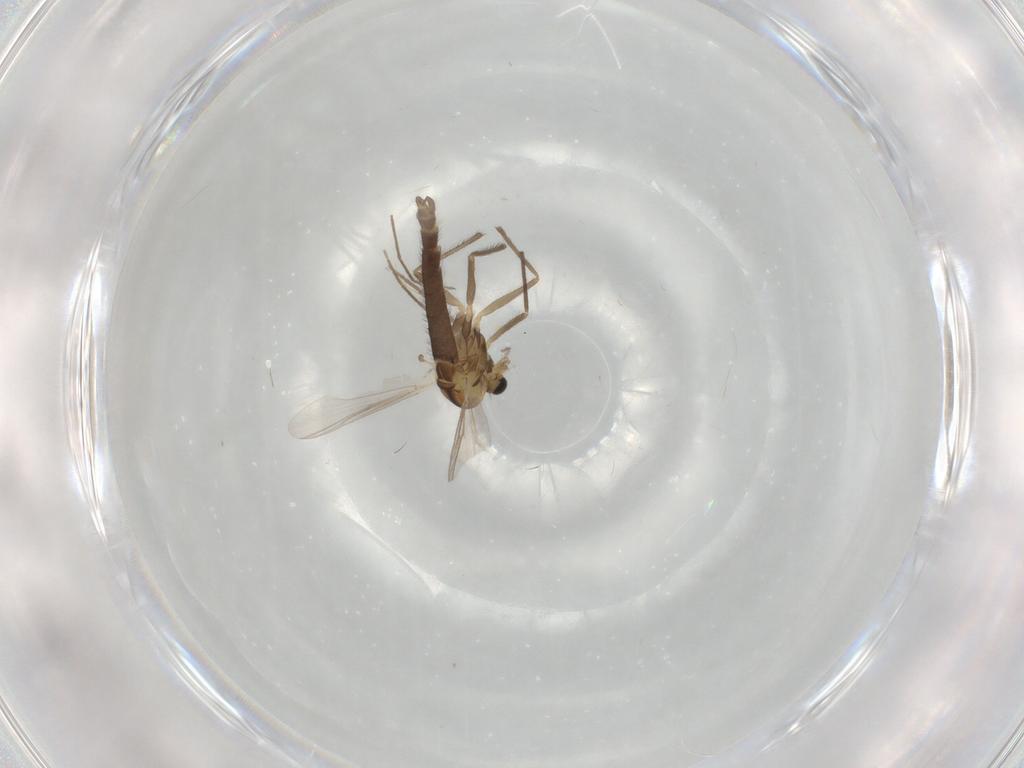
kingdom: Animalia
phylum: Arthropoda
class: Insecta
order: Diptera
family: Chironomidae
